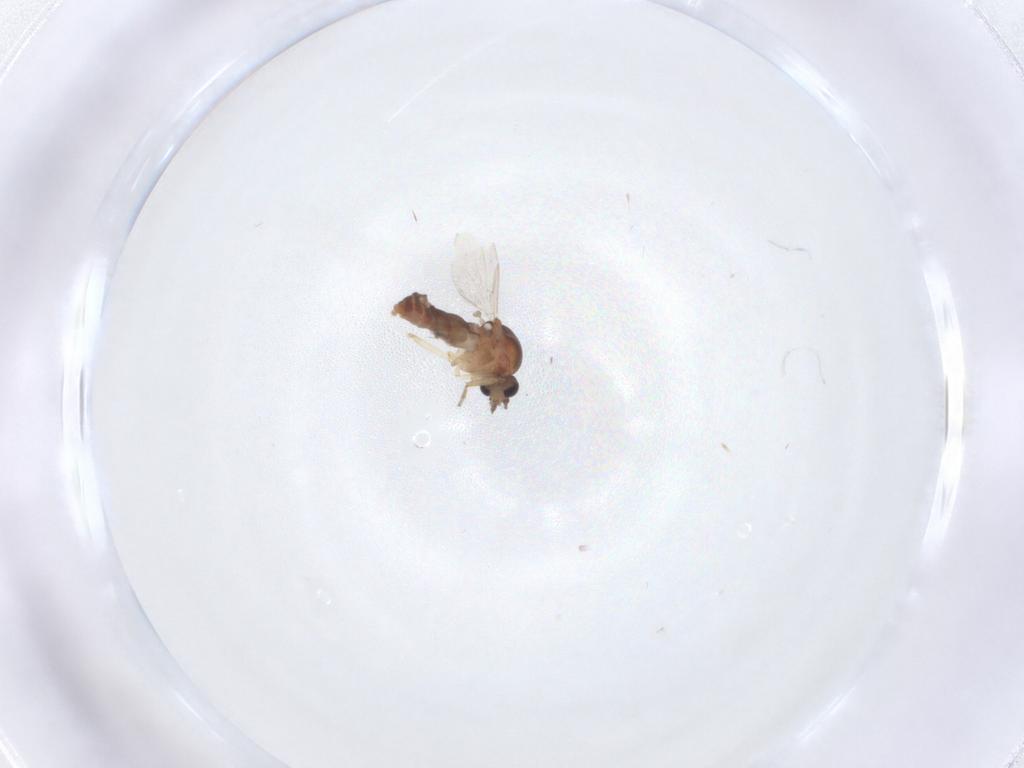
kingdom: Animalia
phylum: Arthropoda
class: Insecta
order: Diptera
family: Ceratopogonidae
